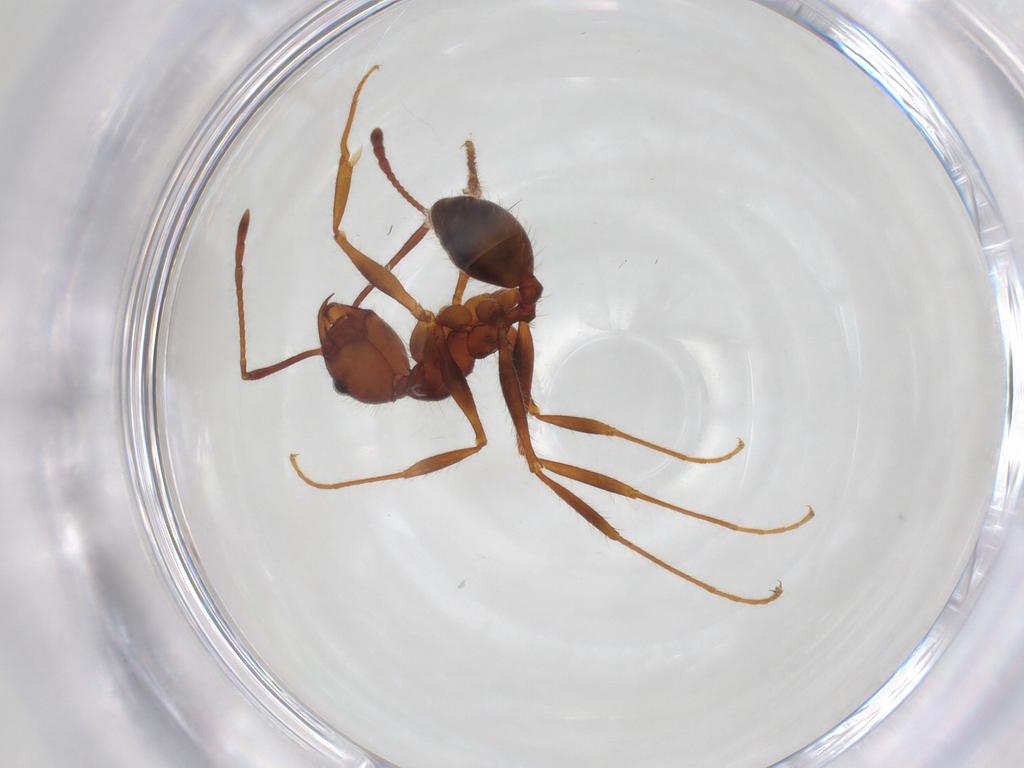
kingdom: Animalia
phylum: Arthropoda
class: Insecta
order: Hymenoptera
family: Formicidae
